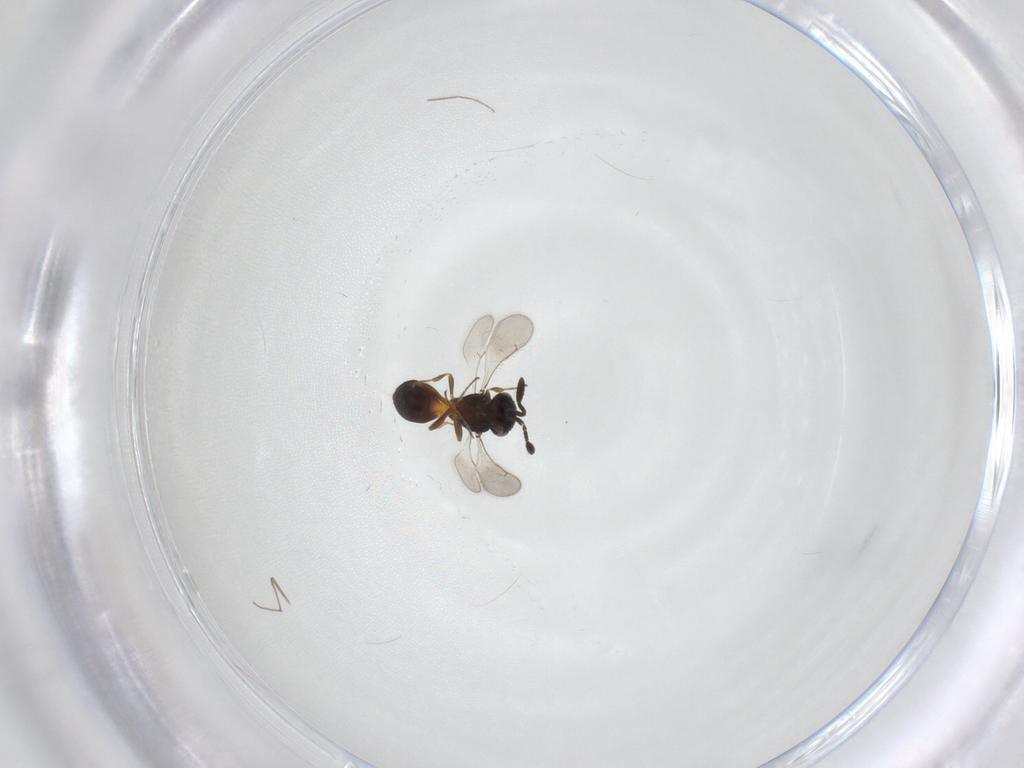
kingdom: Animalia
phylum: Arthropoda
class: Insecta
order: Hymenoptera
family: Scelionidae
